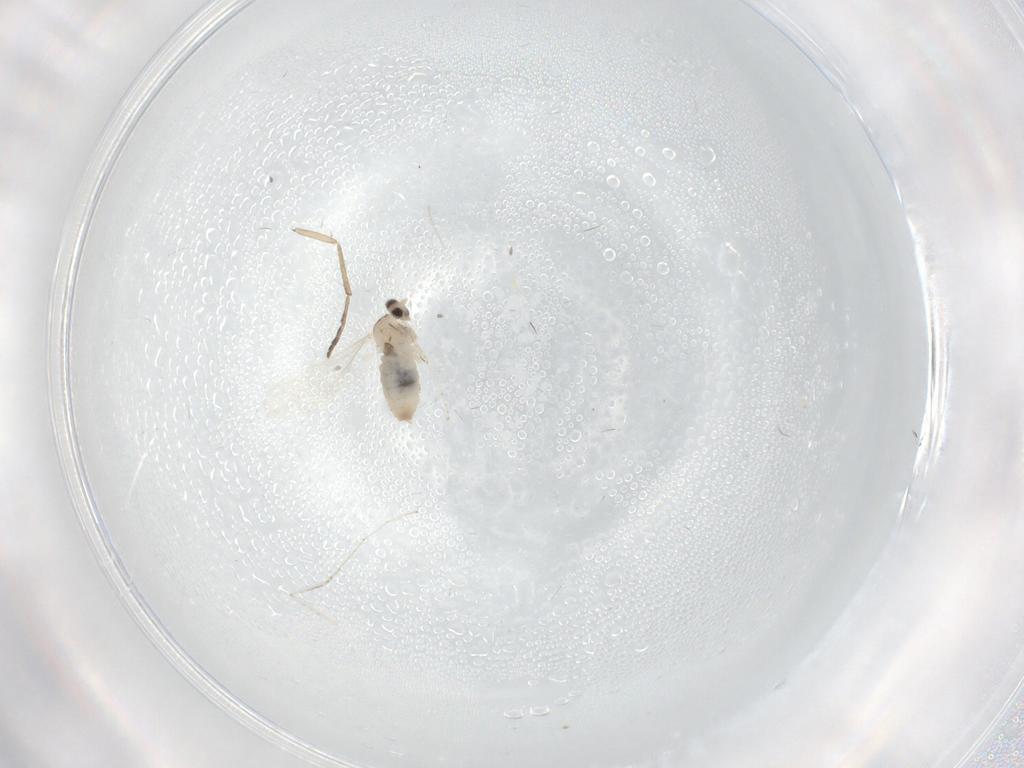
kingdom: Animalia
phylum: Arthropoda
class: Insecta
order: Diptera
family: Cecidomyiidae
